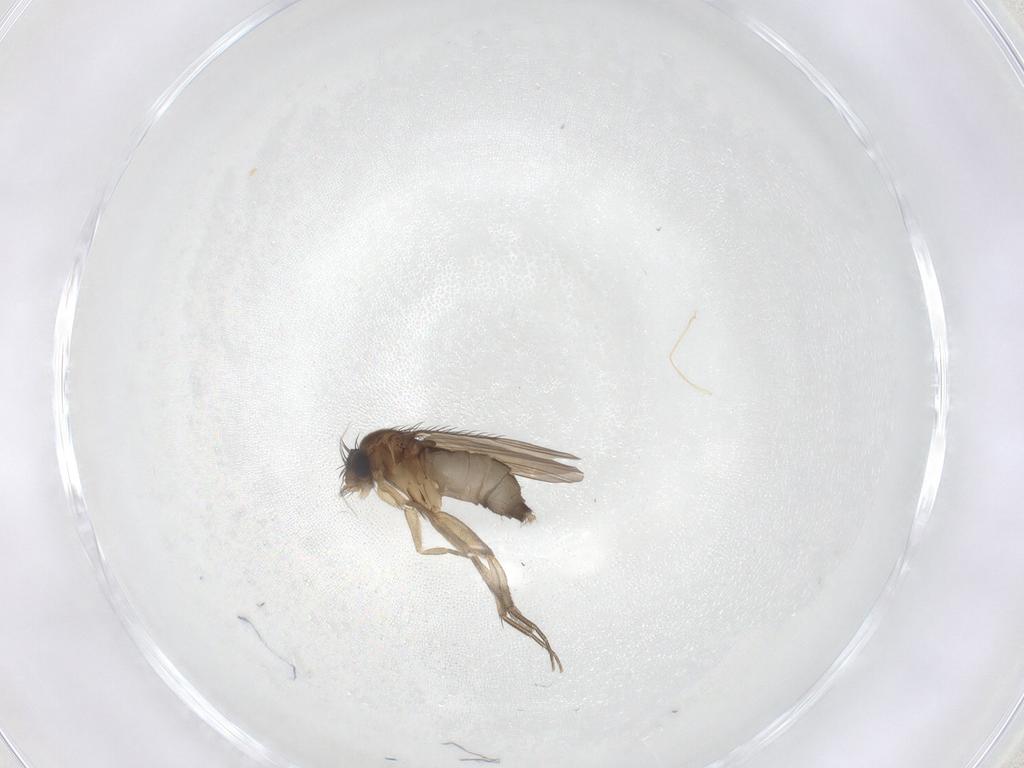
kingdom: Animalia
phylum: Arthropoda
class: Insecta
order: Diptera
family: Phoridae
